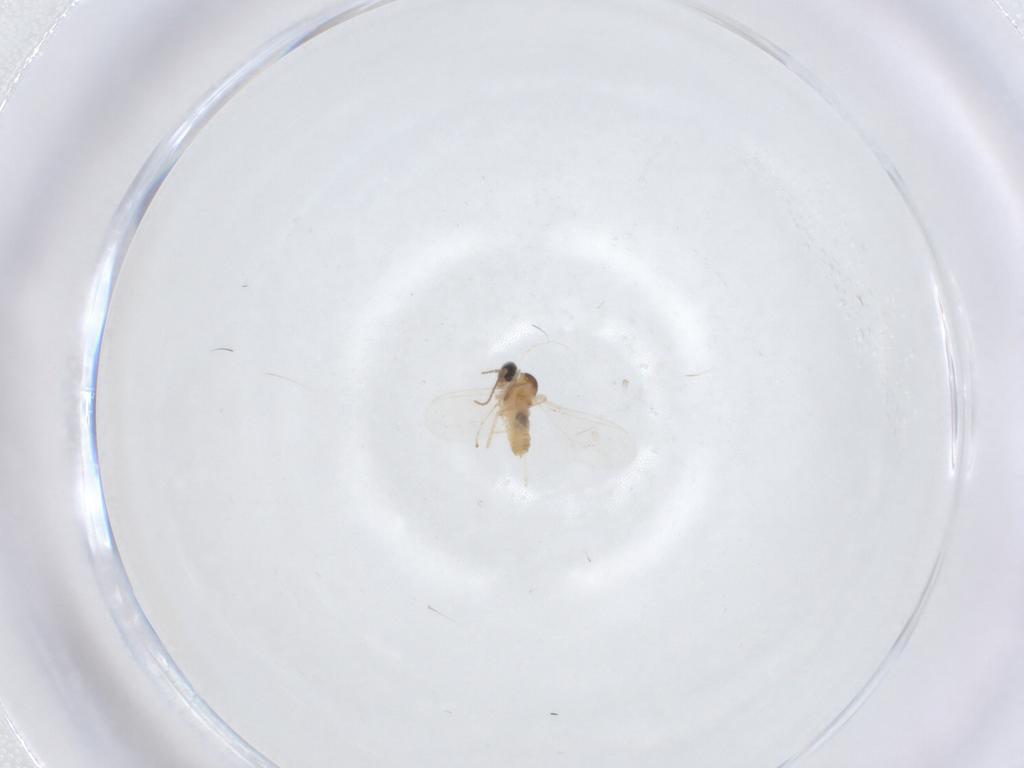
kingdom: Animalia
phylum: Arthropoda
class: Insecta
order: Diptera
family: Cecidomyiidae
